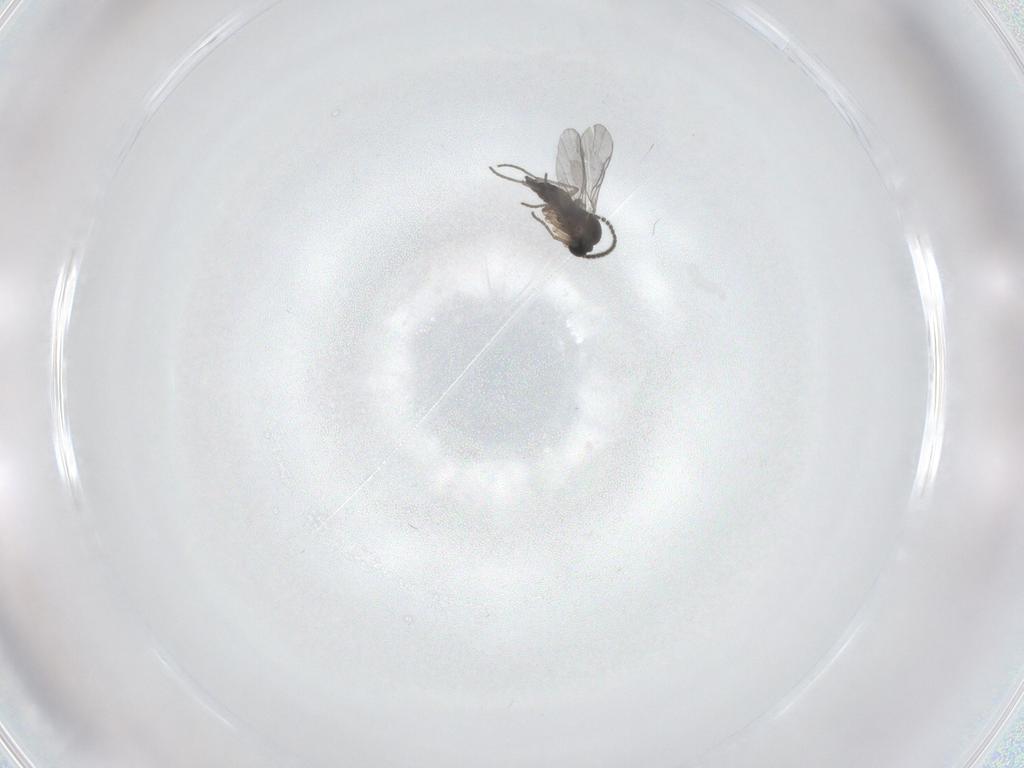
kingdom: Animalia
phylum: Arthropoda
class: Insecta
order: Diptera
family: Sciaridae
